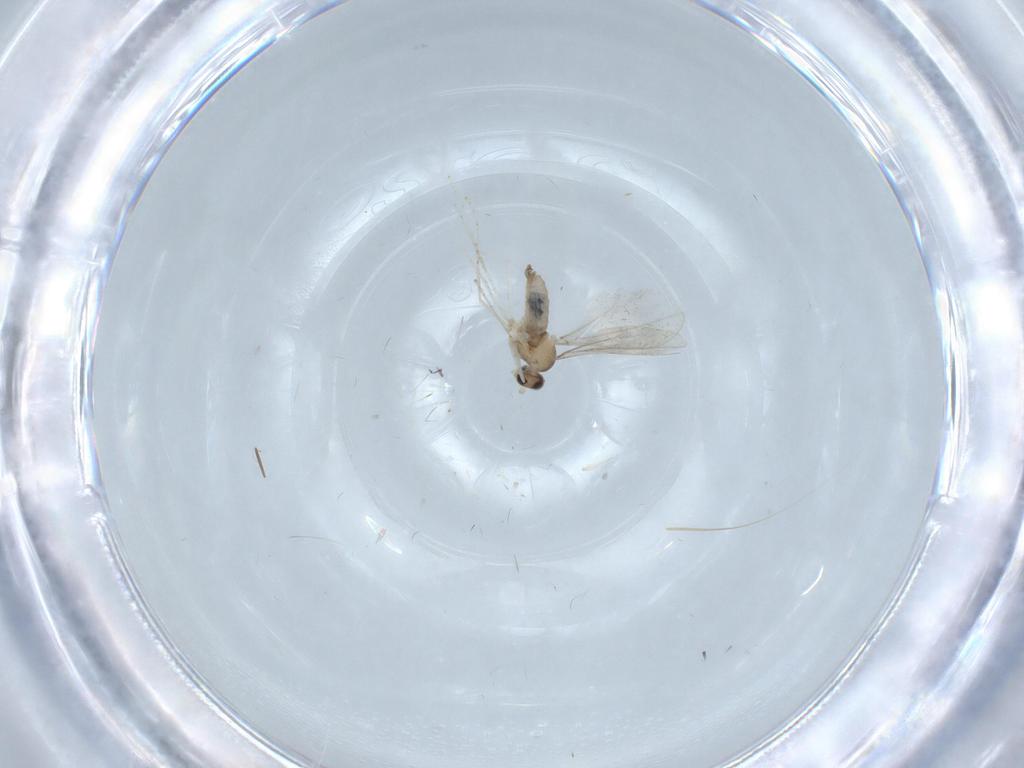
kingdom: Animalia
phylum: Arthropoda
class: Insecta
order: Diptera
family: Cecidomyiidae
